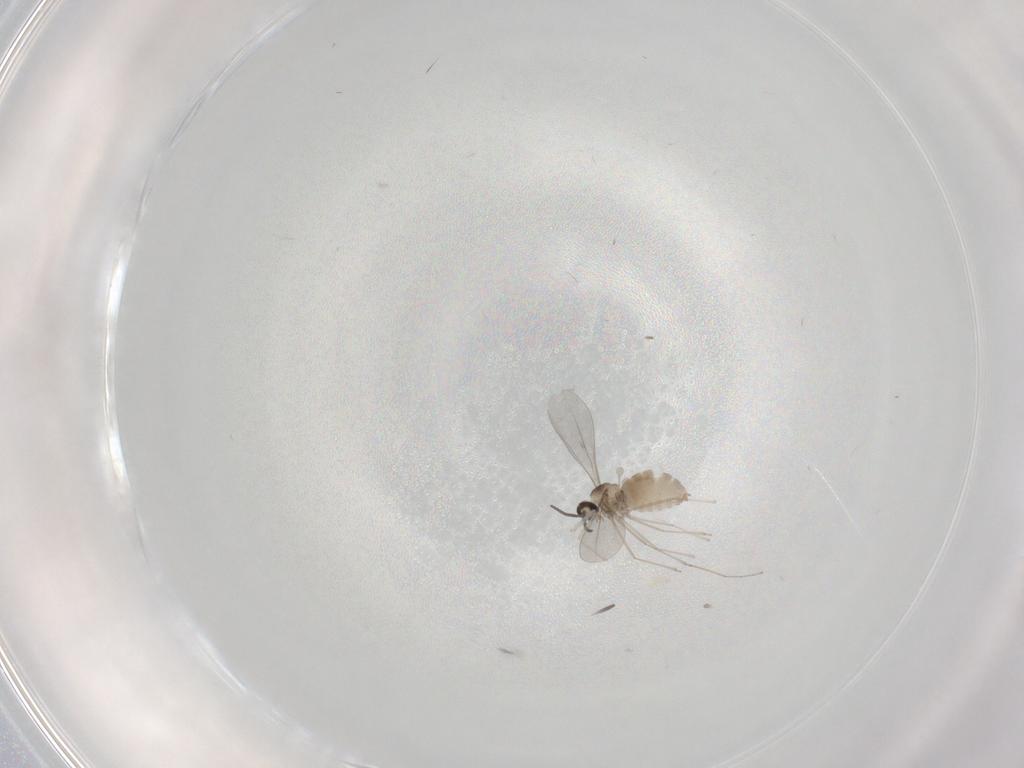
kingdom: Animalia
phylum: Arthropoda
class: Insecta
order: Diptera
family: Cecidomyiidae
